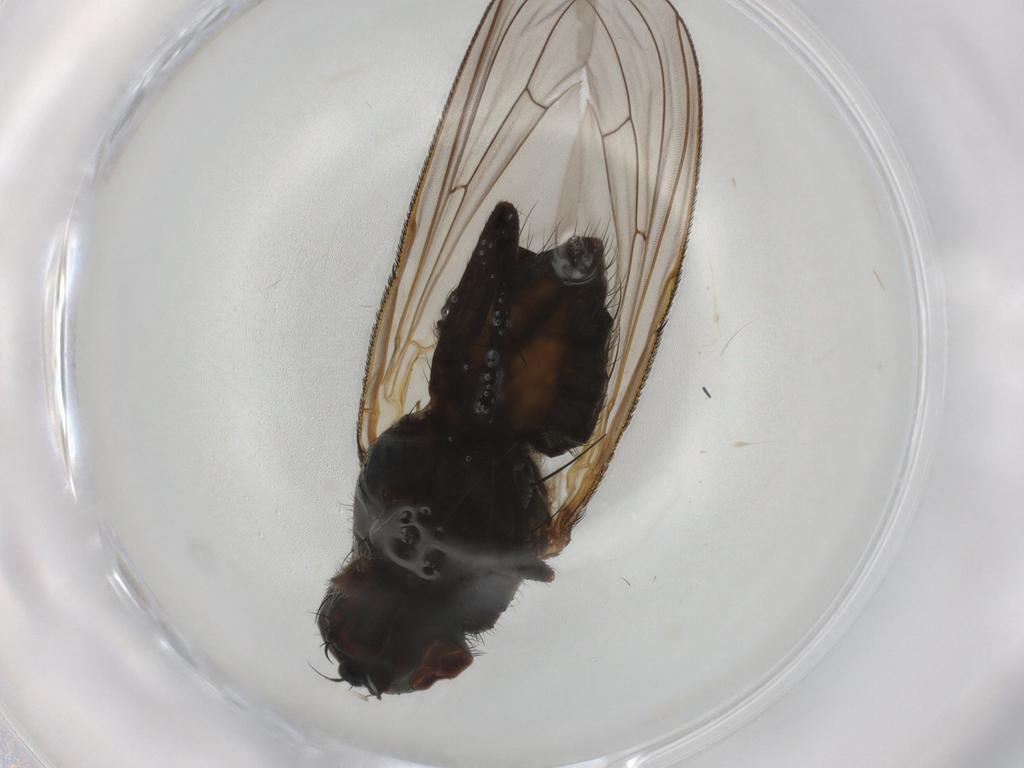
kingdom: Animalia
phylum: Arthropoda
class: Insecta
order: Diptera
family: Anthomyiidae
